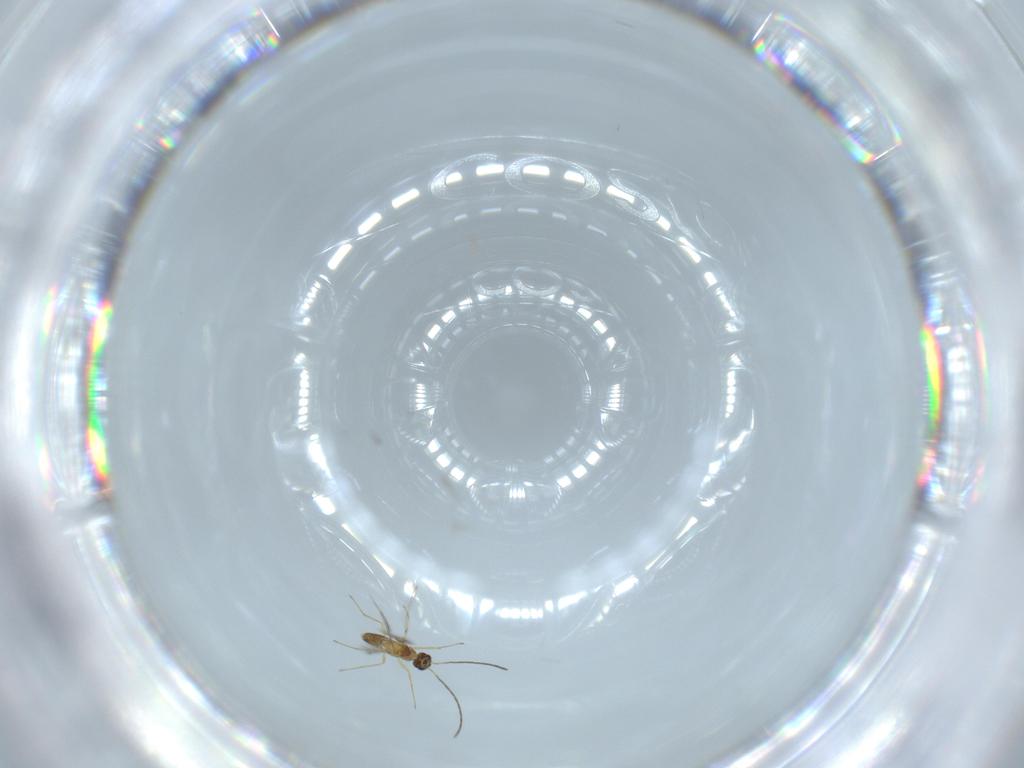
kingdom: Animalia
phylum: Arthropoda
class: Insecta
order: Hymenoptera
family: Mymaridae
